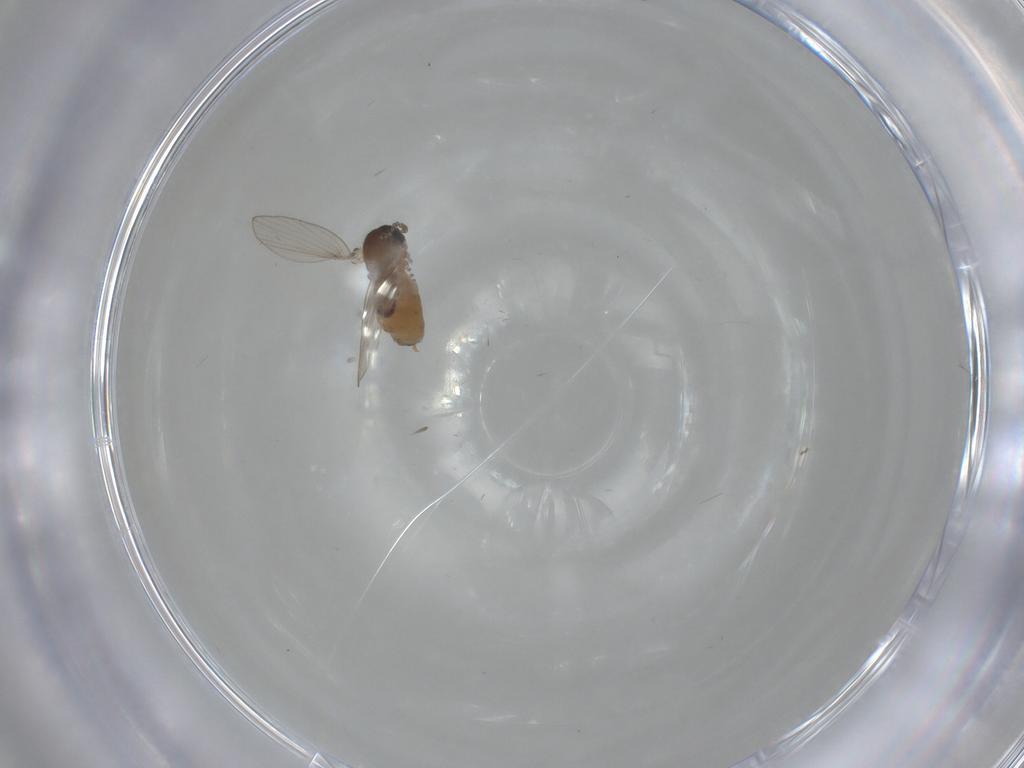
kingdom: Animalia
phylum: Arthropoda
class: Insecta
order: Diptera
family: Psychodidae
